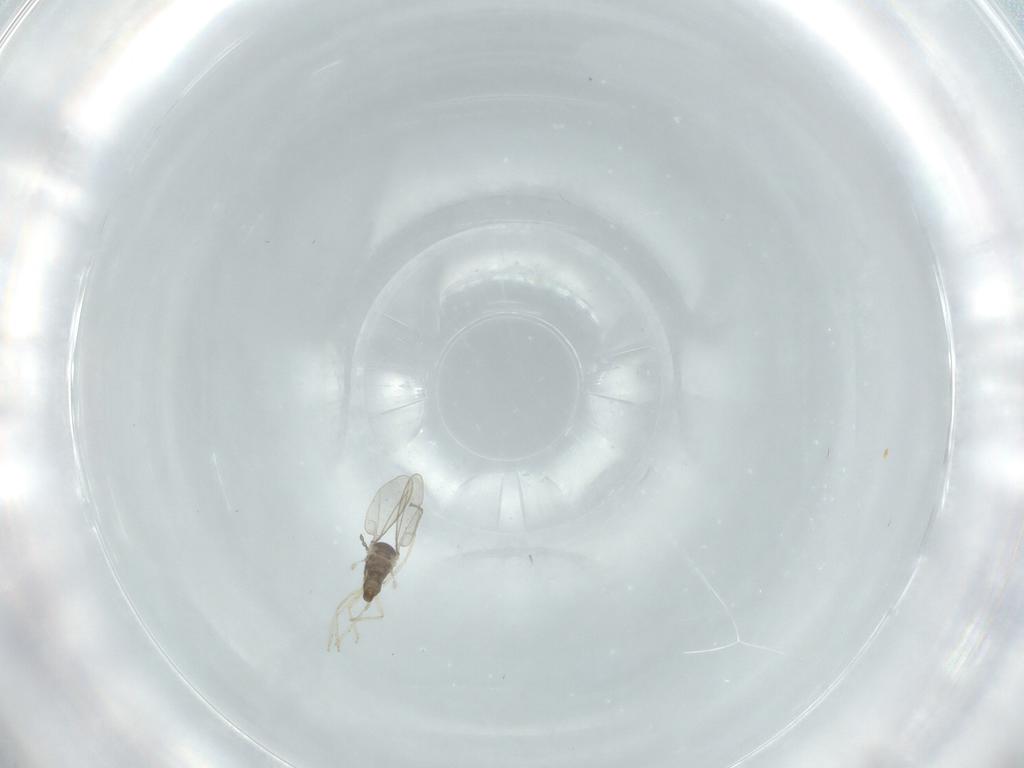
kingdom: Animalia
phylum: Arthropoda
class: Insecta
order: Diptera
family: Cecidomyiidae
